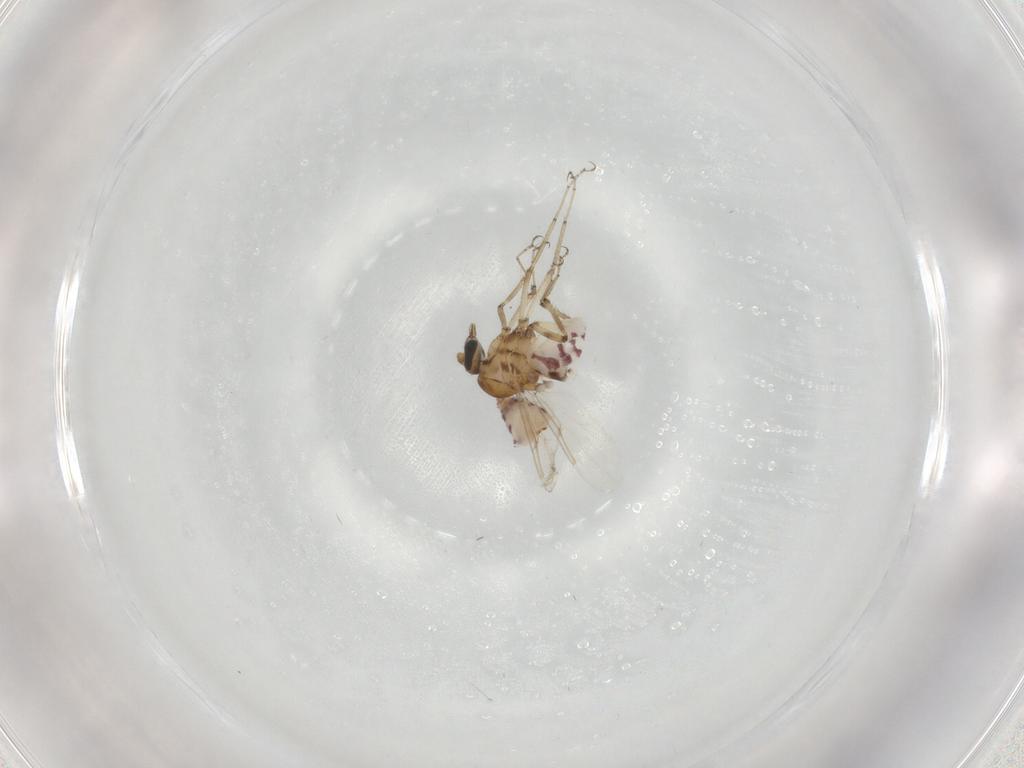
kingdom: Animalia
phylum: Arthropoda
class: Insecta
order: Diptera
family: Ceratopogonidae
